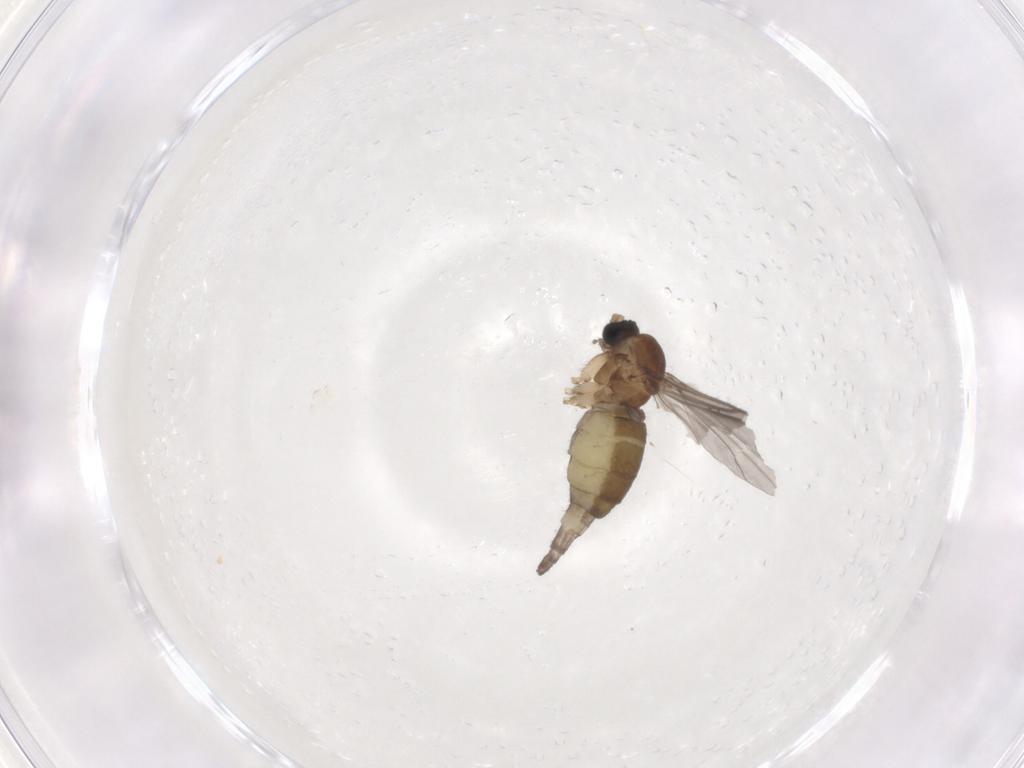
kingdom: Animalia
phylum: Arthropoda
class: Insecta
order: Diptera
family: Sciaridae
